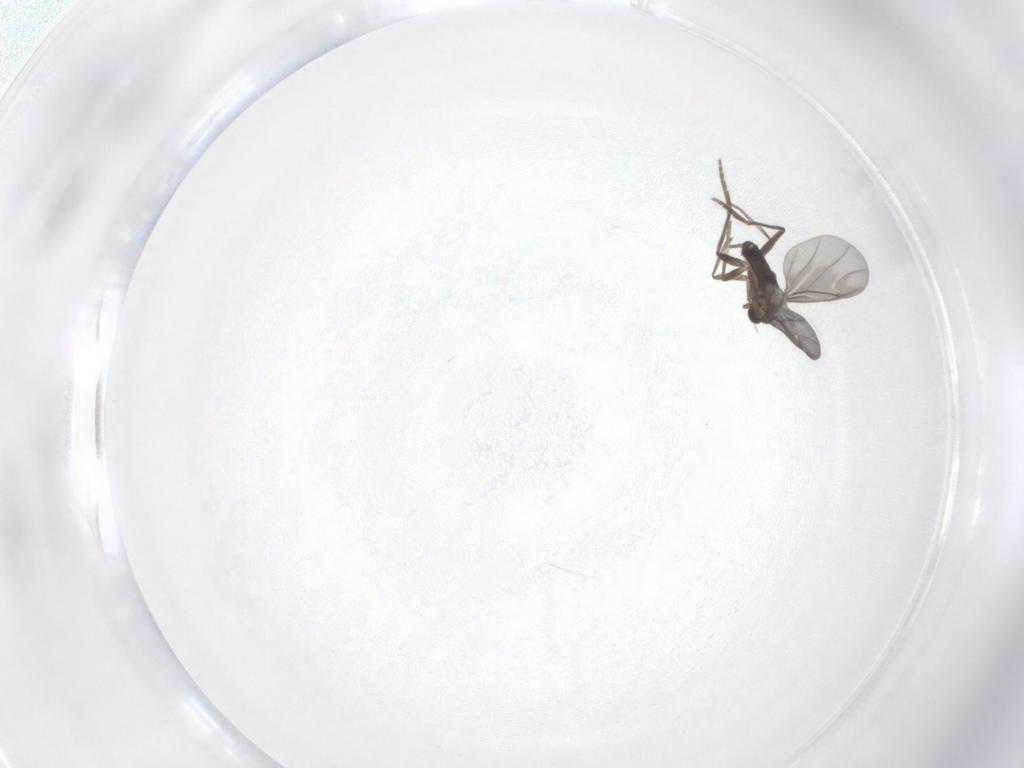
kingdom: Animalia
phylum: Arthropoda
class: Insecta
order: Diptera
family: Phoridae
